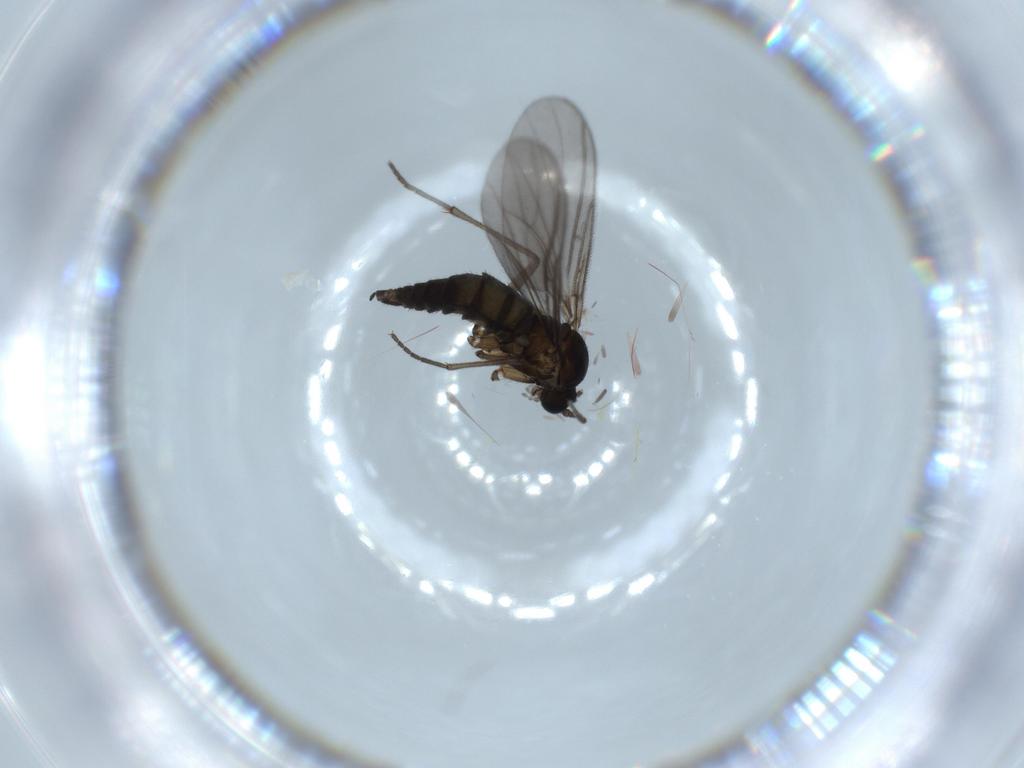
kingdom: Animalia
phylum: Arthropoda
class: Insecta
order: Diptera
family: Sciaridae
